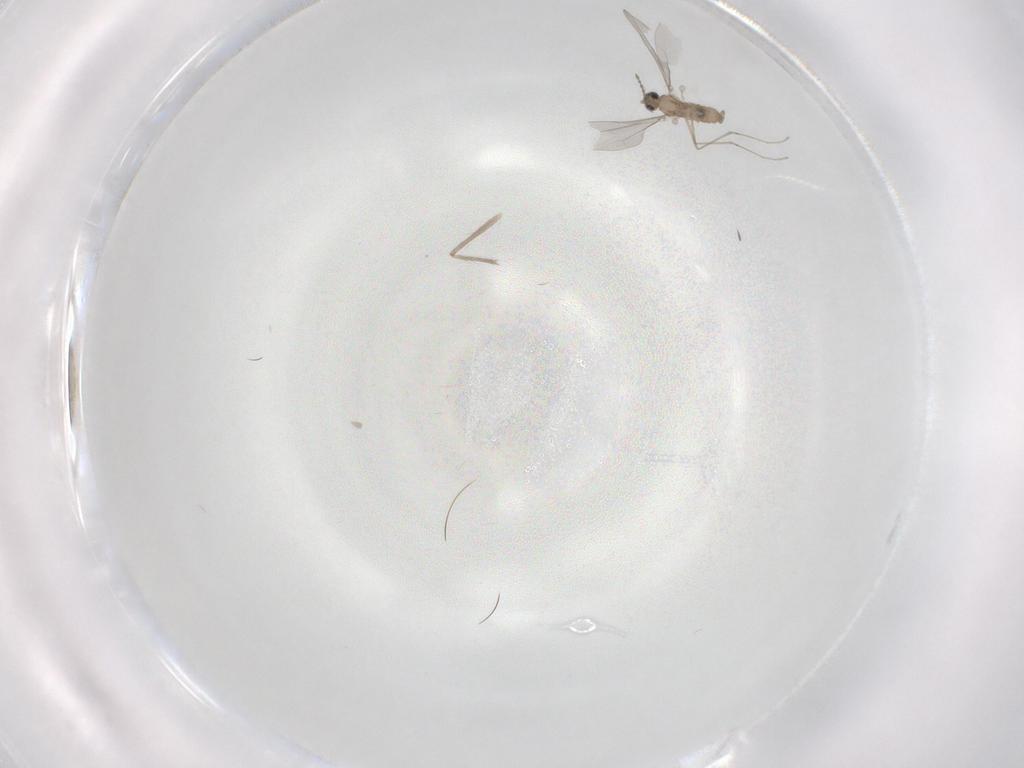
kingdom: Animalia
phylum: Arthropoda
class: Insecta
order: Diptera
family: Cecidomyiidae
